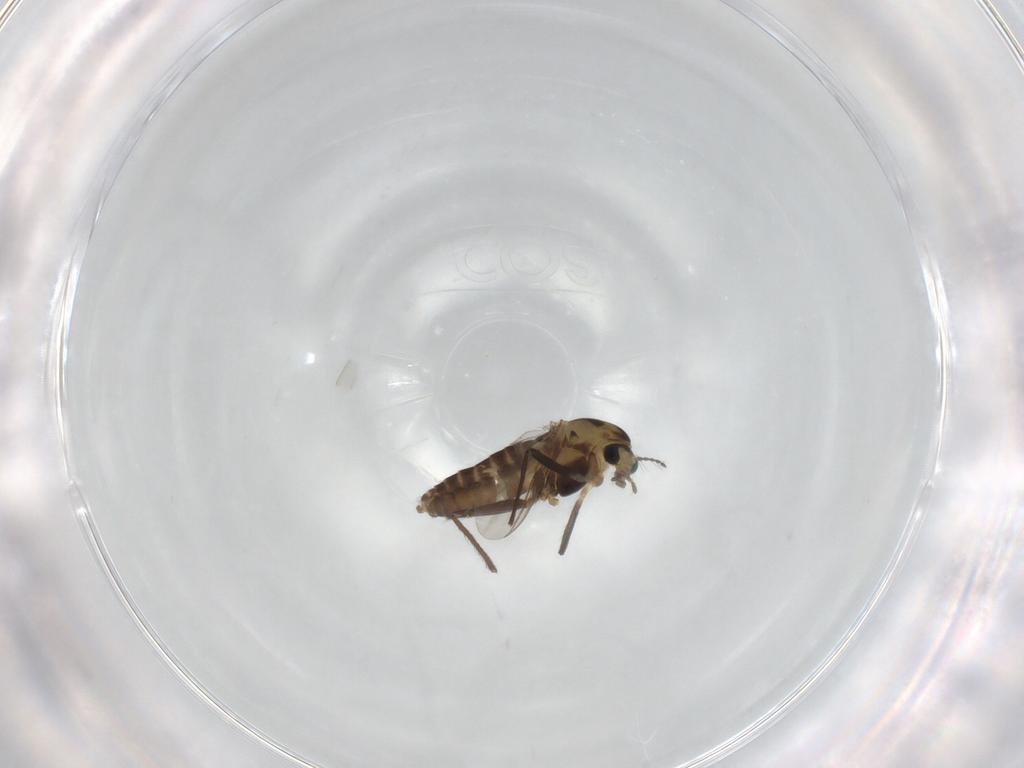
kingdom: Animalia
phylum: Arthropoda
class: Insecta
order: Diptera
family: Chironomidae
